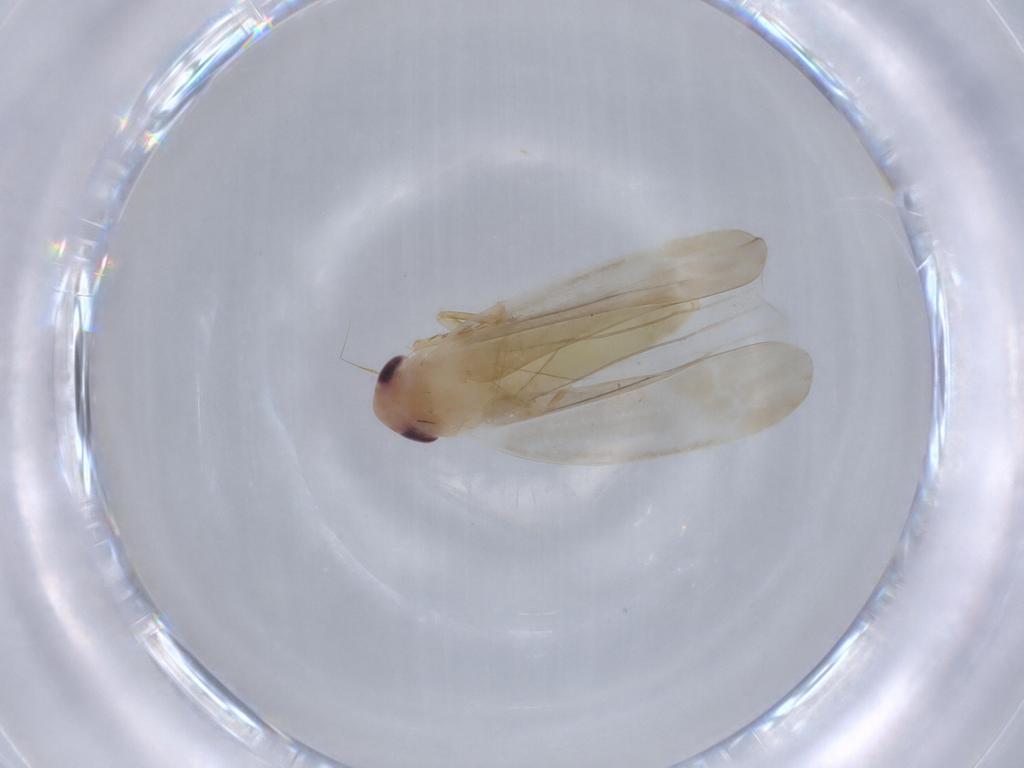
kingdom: Animalia
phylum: Arthropoda
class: Insecta
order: Hemiptera
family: Cicadellidae
